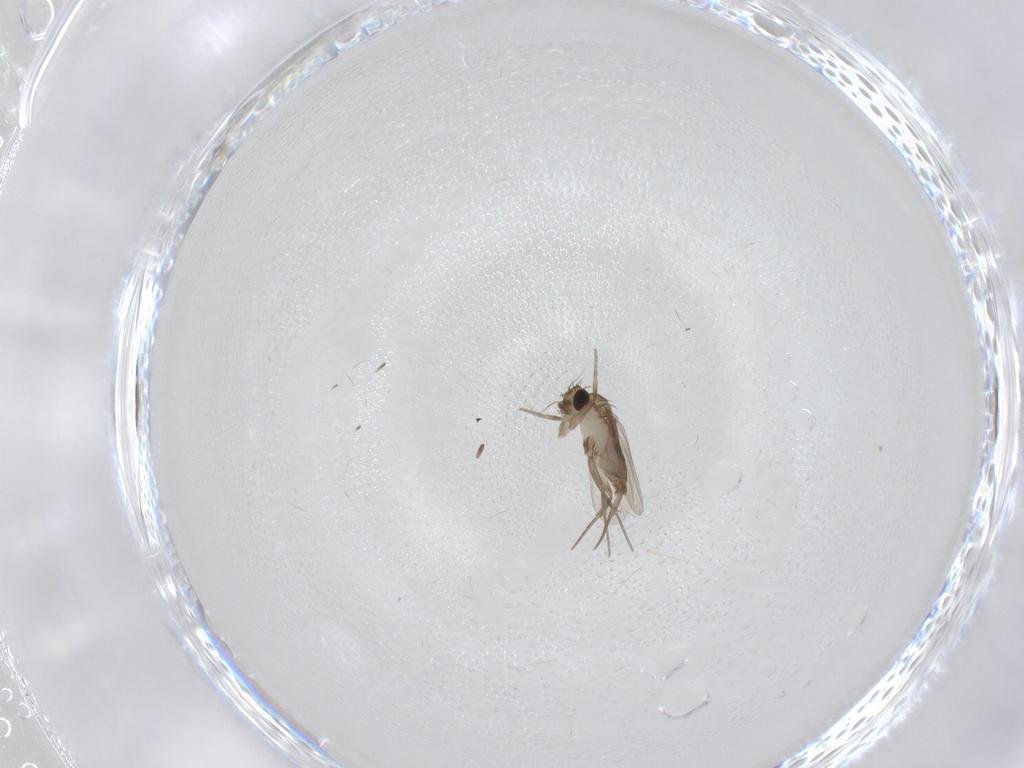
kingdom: Animalia
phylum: Arthropoda
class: Insecta
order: Diptera
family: Phoridae
